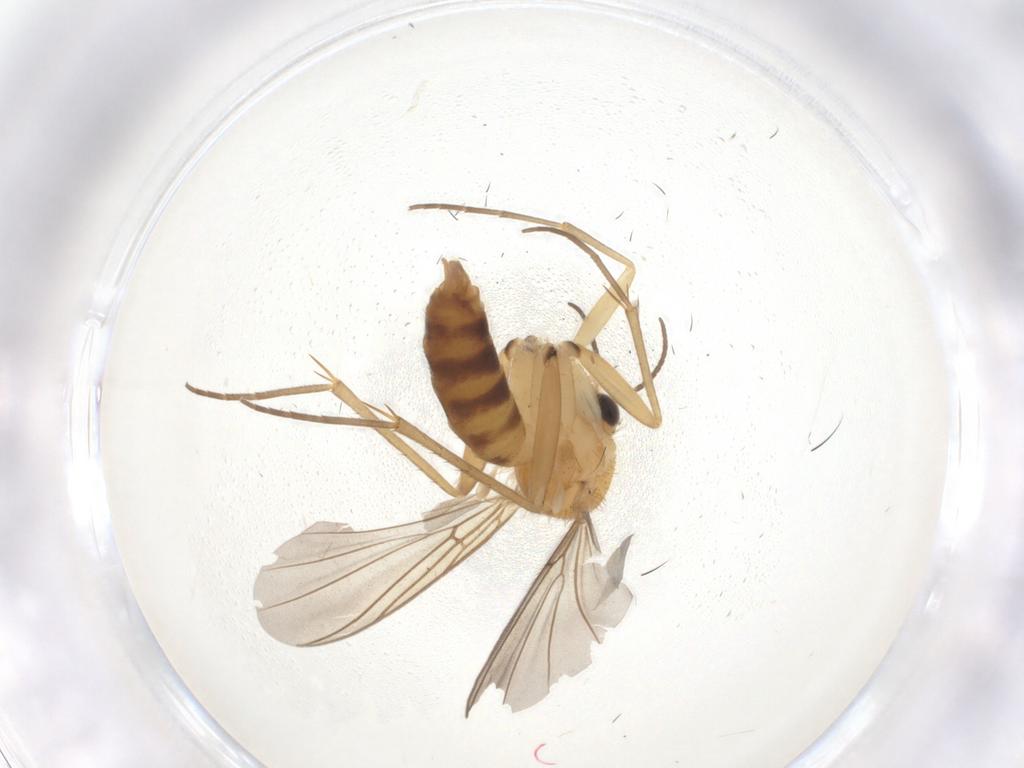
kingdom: Animalia
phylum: Arthropoda
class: Insecta
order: Diptera
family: Mycetophilidae
